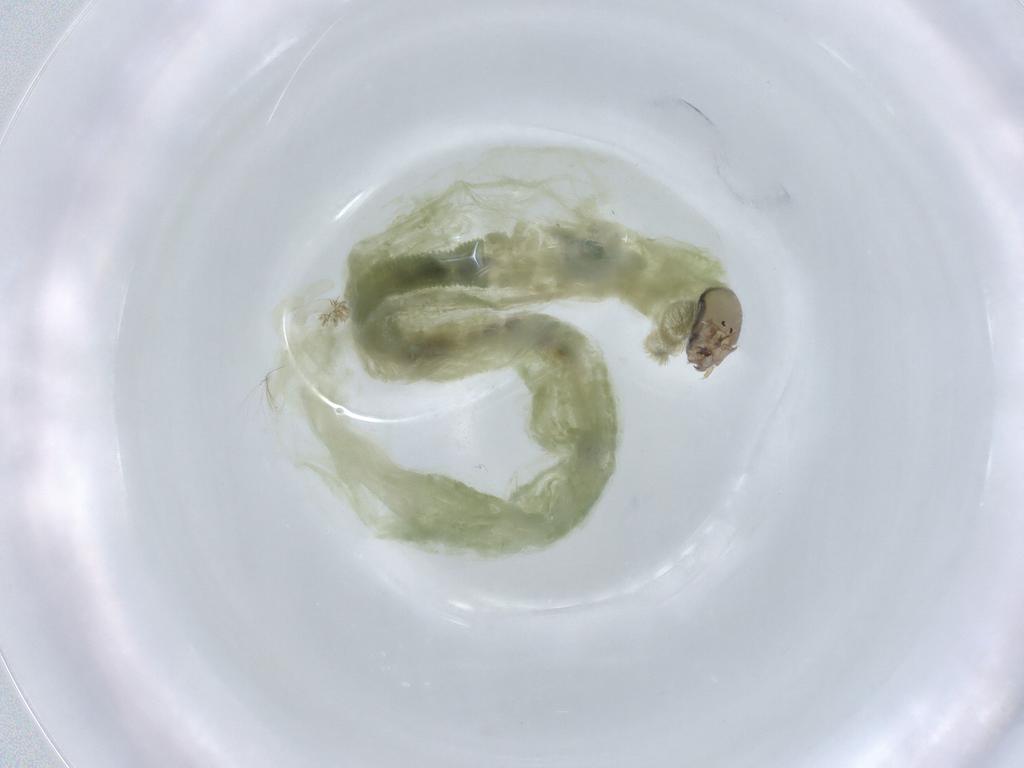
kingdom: Animalia
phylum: Arthropoda
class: Insecta
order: Diptera
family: Chironomidae
